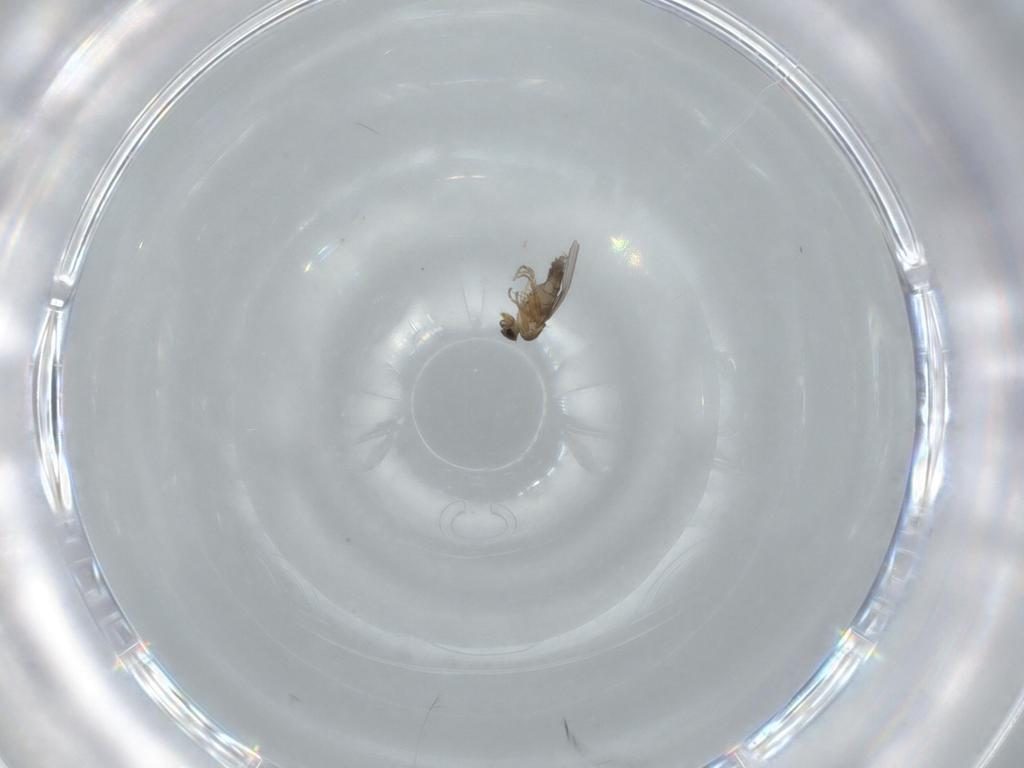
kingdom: Animalia
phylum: Arthropoda
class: Insecta
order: Diptera
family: Phoridae
